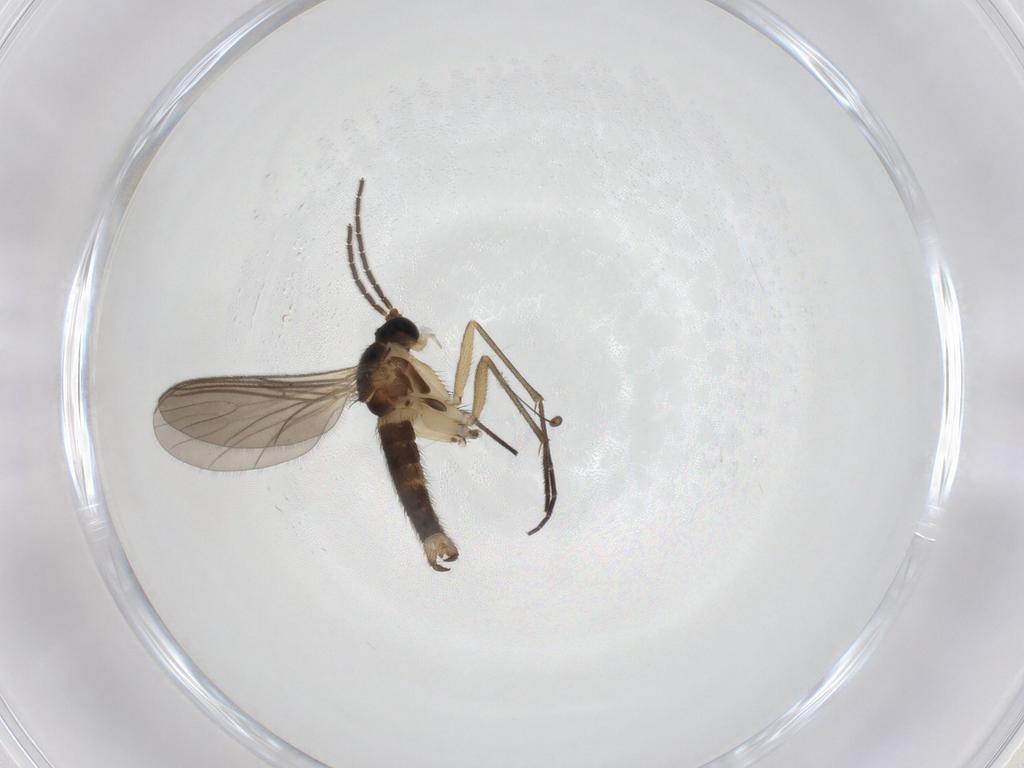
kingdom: Animalia
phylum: Arthropoda
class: Insecta
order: Diptera
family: Sciaridae
